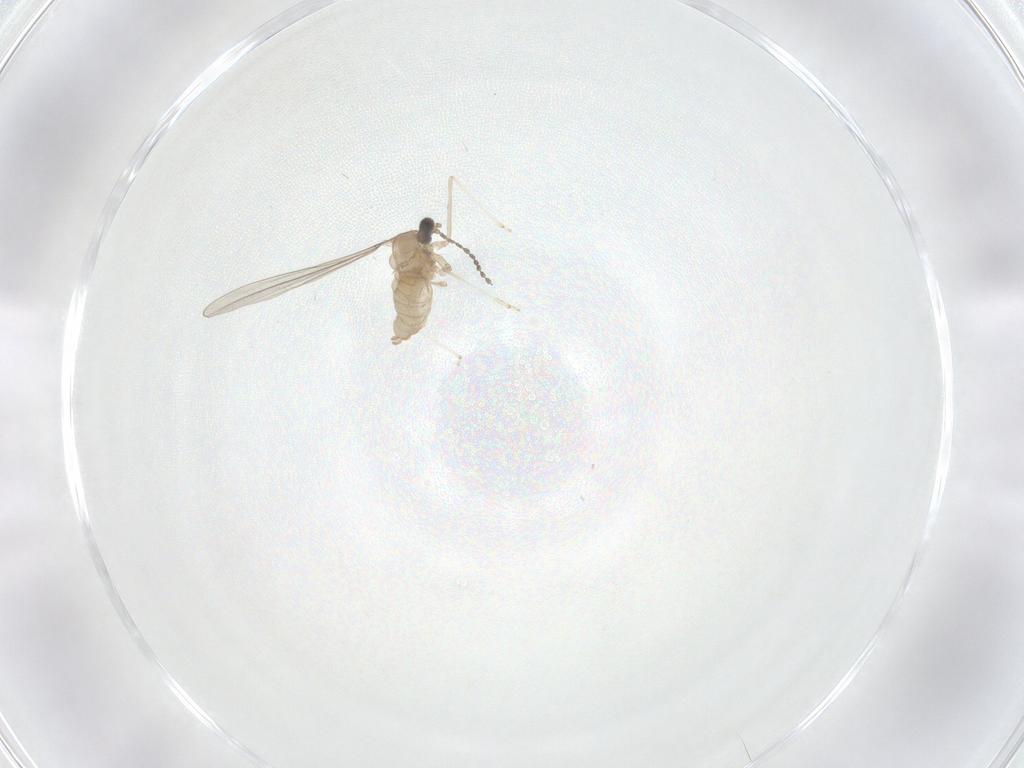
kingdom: Animalia
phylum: Arthropoda
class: Insecta
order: Diptera
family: Cecidomyiidae
